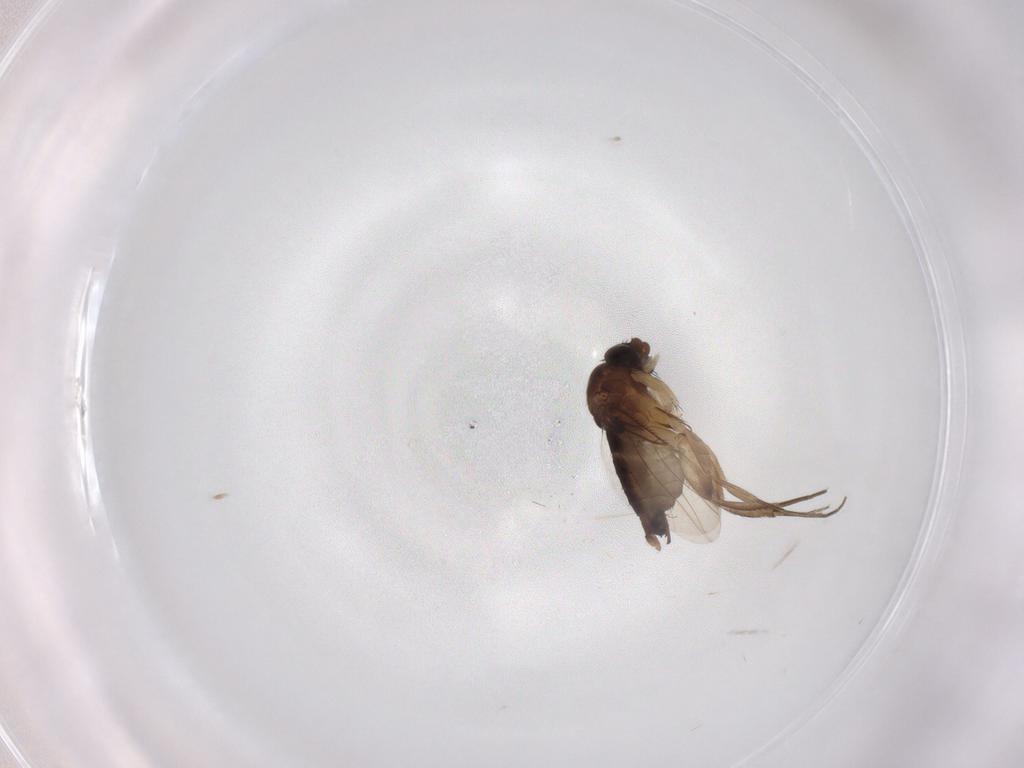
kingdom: Animalia
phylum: Arthropoda
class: Insecta
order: Diptera
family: Phoridae
